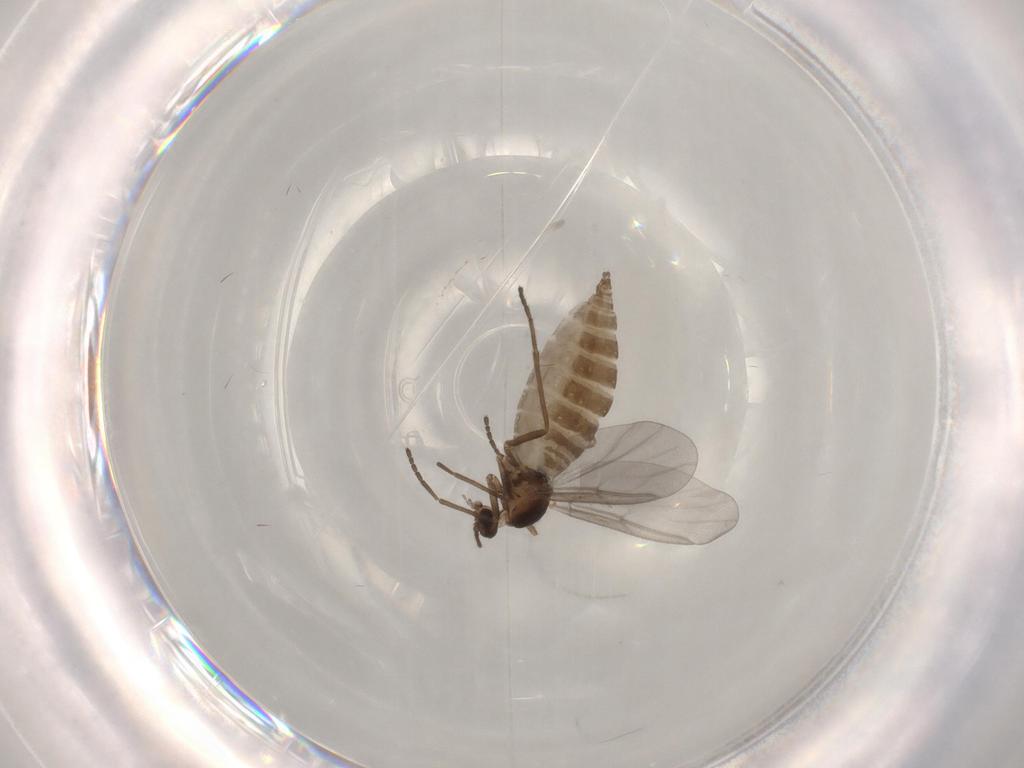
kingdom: Animalia
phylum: Arthropoda
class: Insecta
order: Diptera
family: Cecidomyiidae
